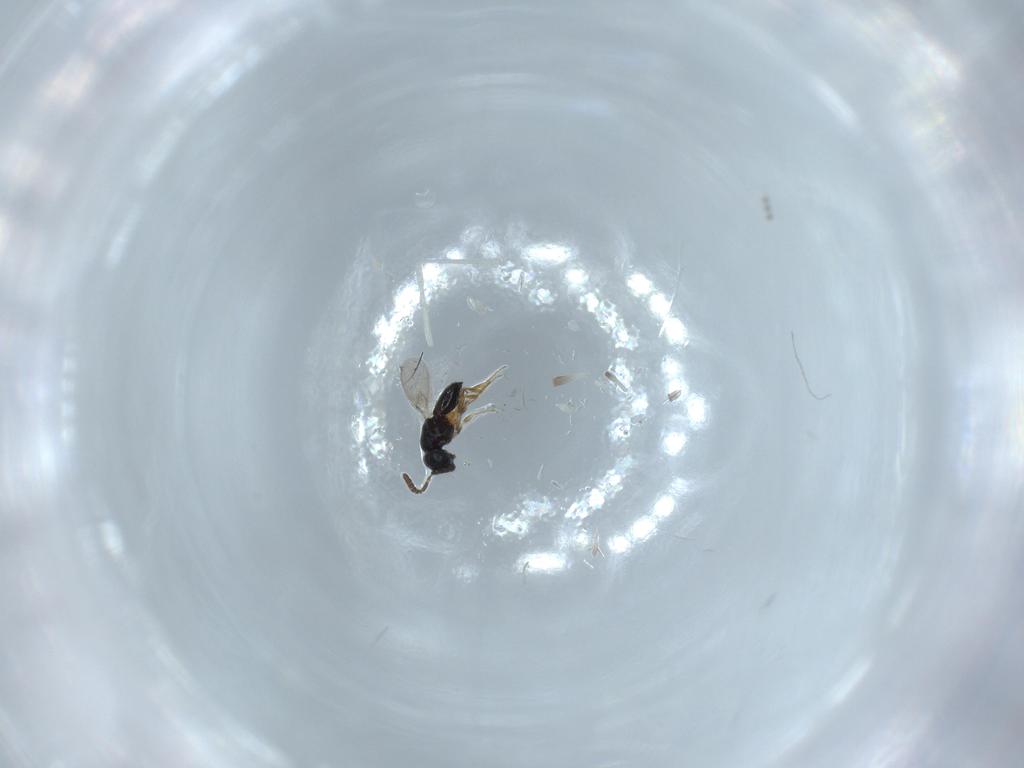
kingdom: Animalia
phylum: Arthropoda
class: Insecta
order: Hymenoptera
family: Scelionidae
